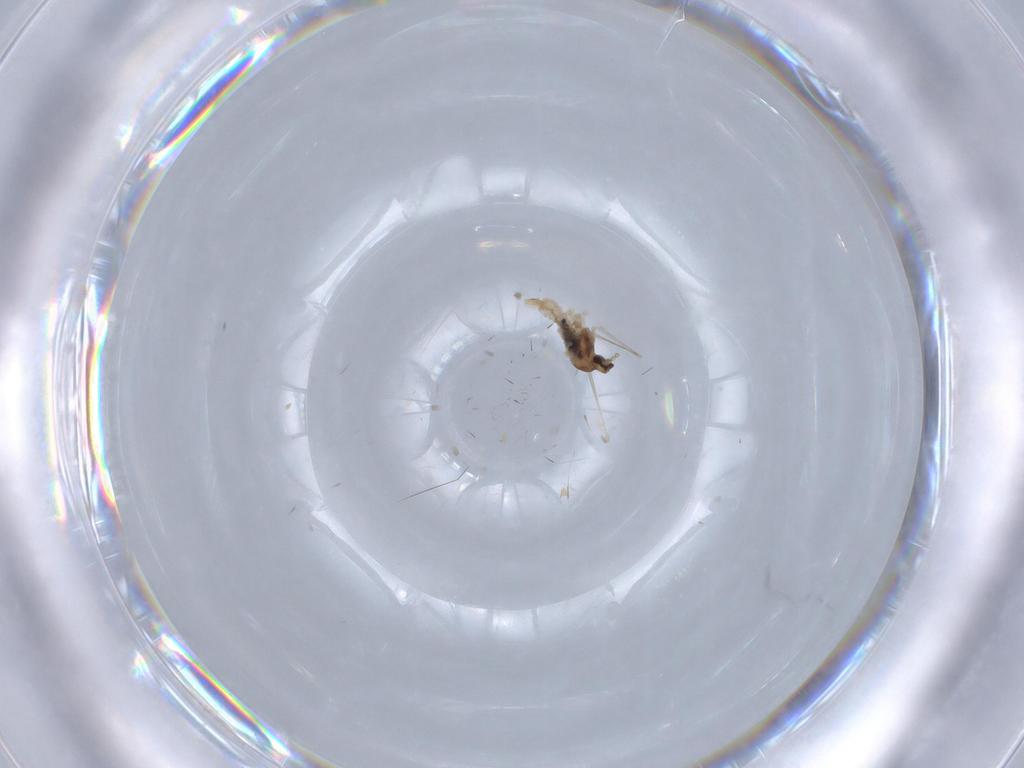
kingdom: Animalia
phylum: Arthropoda
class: Insecta
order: Diptera
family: Cecidomyiidae
